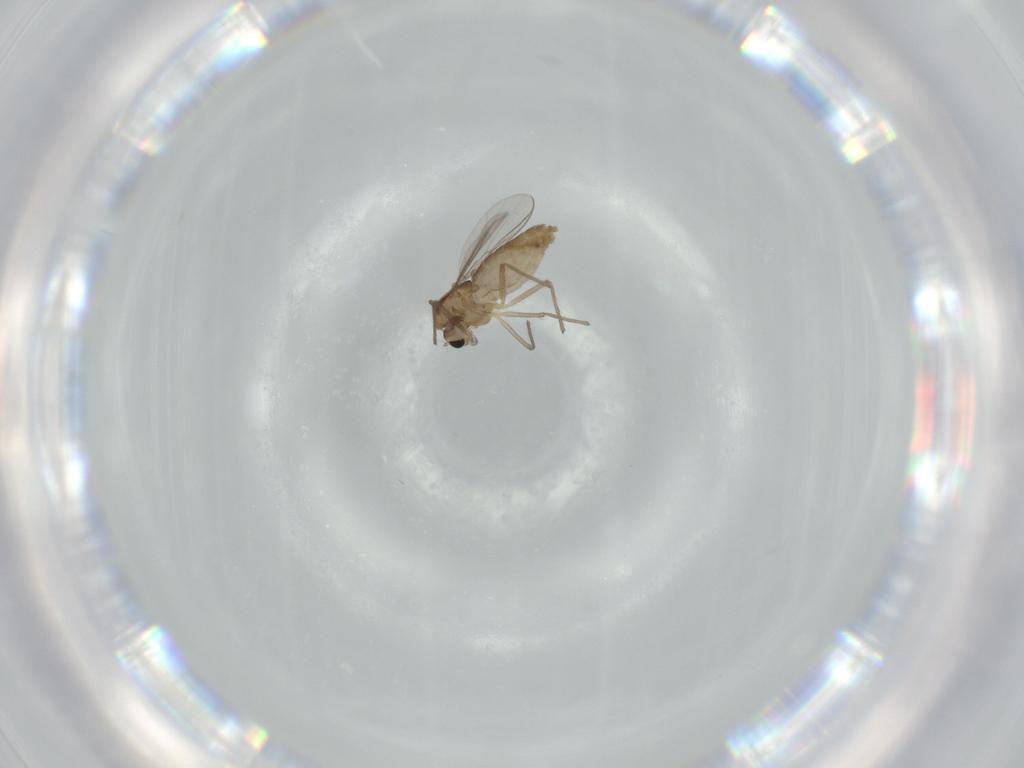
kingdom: Animalia
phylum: Arthropoda
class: Insecta
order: Diptera
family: Chironomidae
